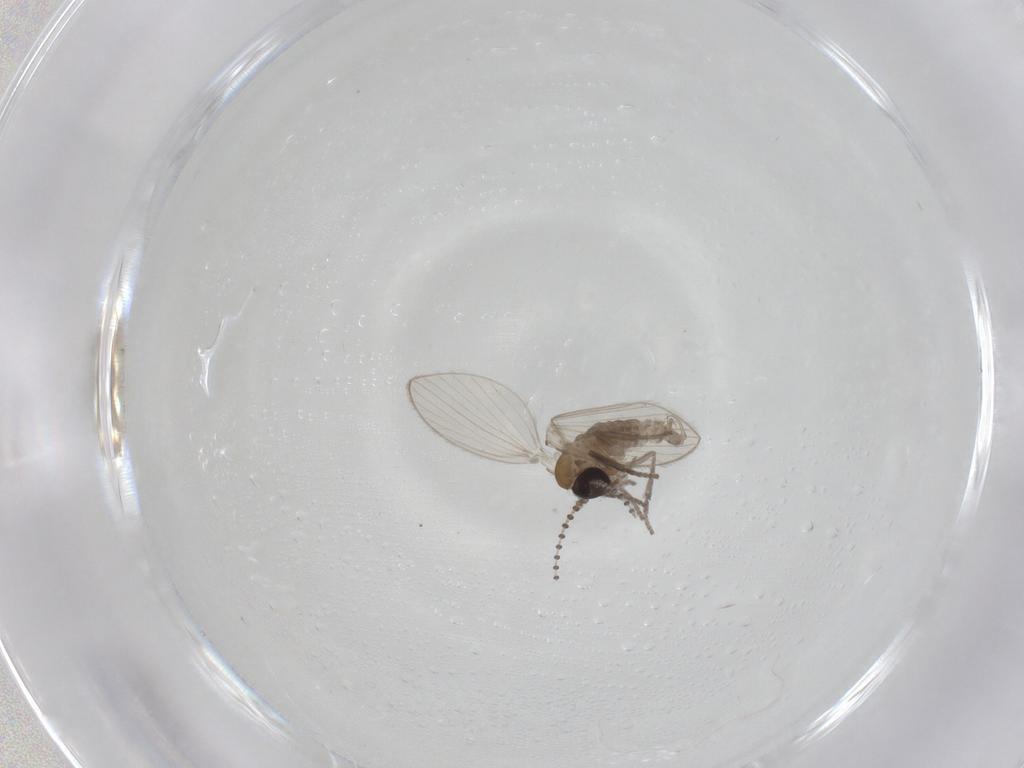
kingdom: Animalia
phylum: Arthropoda
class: Insecta
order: Diptera
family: Psychodidae
